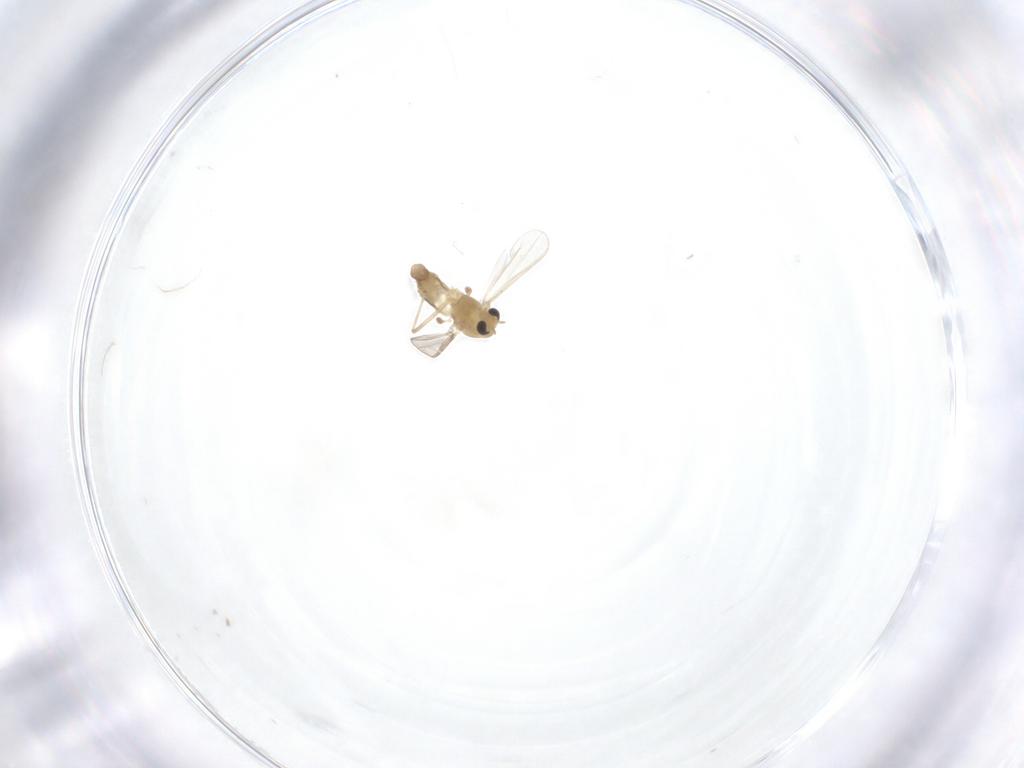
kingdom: Animalia
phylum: Arthropoda
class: Insecta
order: Diptera
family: Chironomidae
